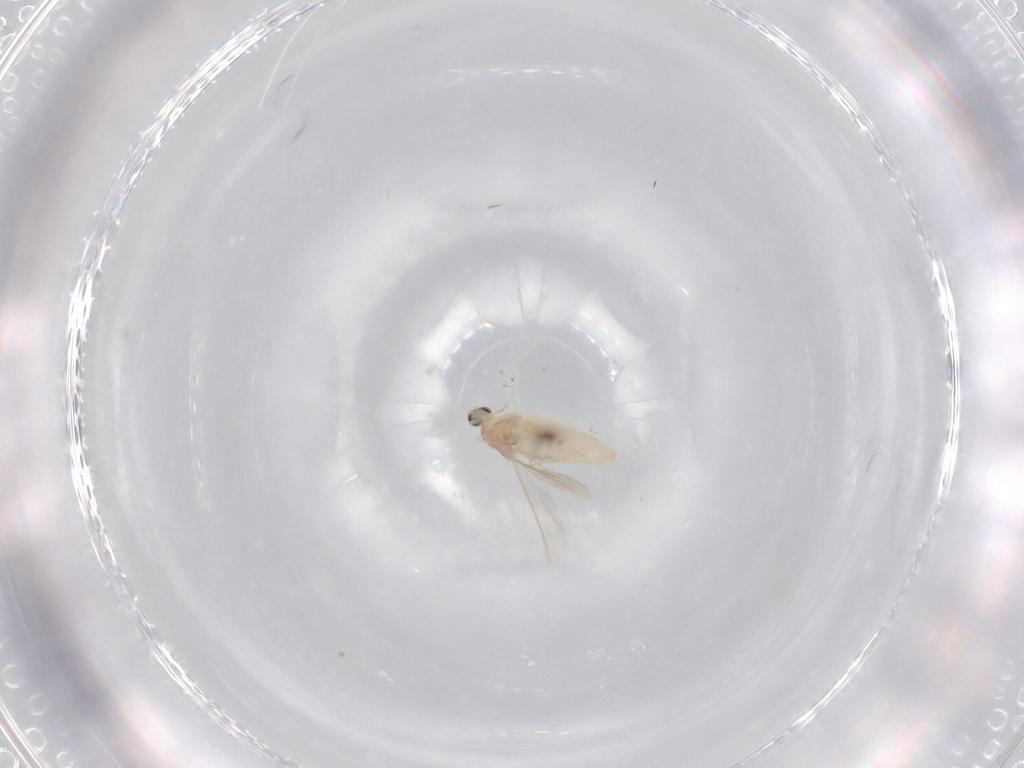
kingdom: Animalia
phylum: Arthropoda
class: Insecta
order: Diptera
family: Cecidomyiidae
